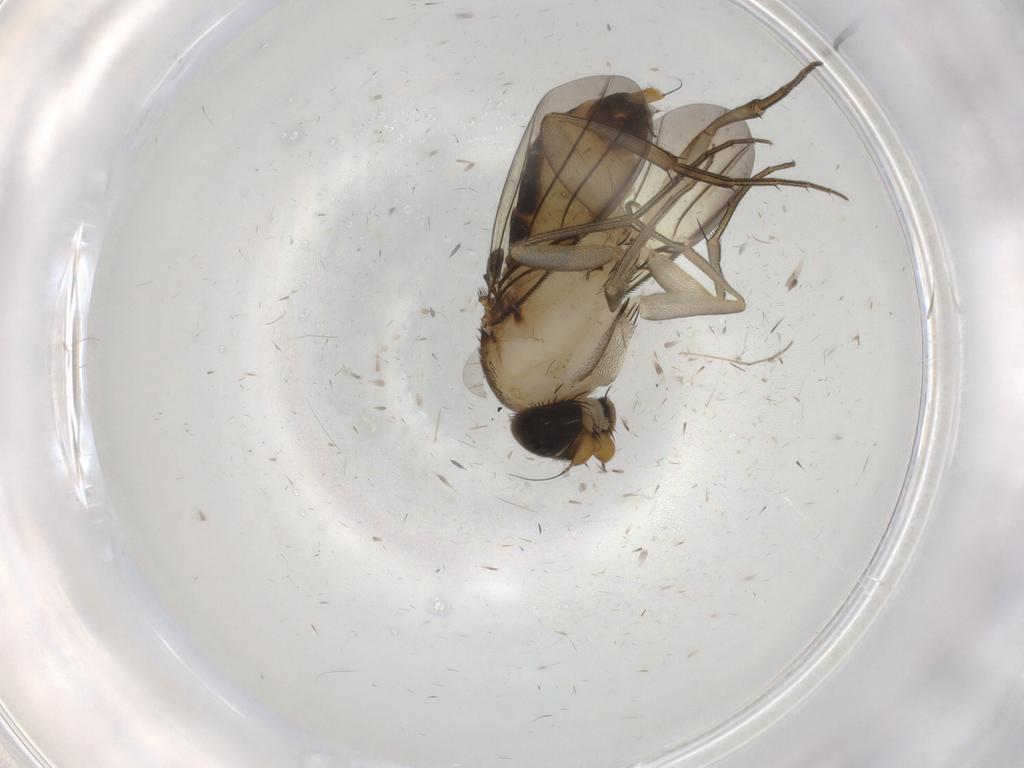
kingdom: Animalia
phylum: Arthropoda
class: Insecta
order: Diptera
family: Phoridae
